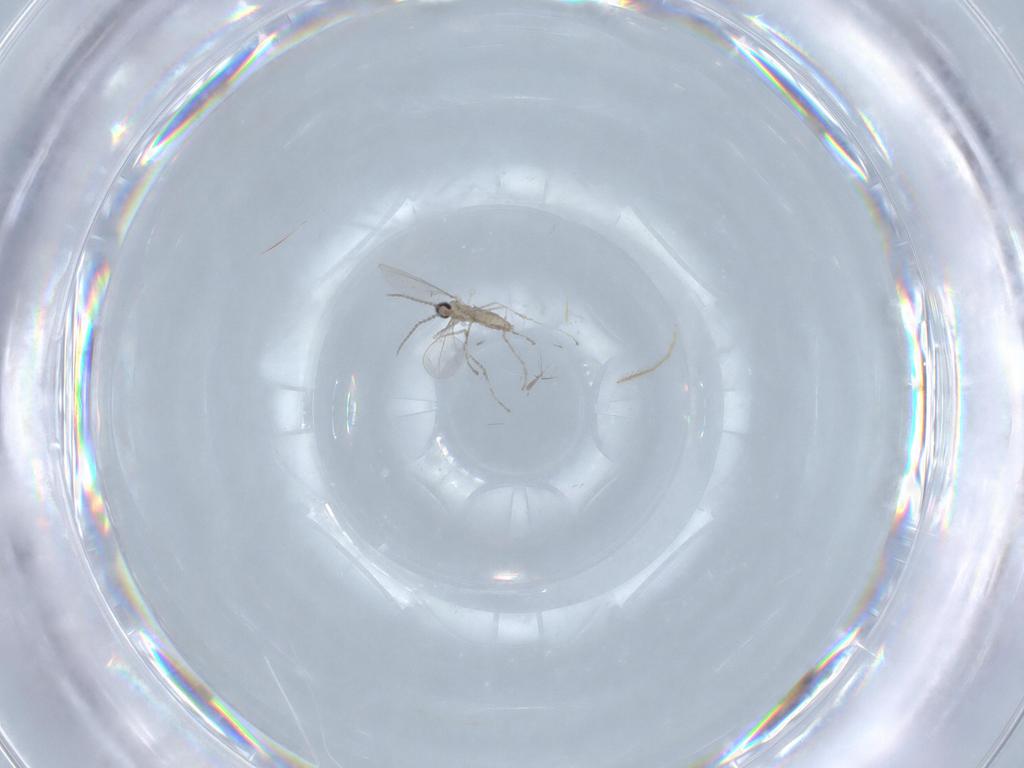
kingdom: Animalia
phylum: Arthropoda
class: Insecta
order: Diptera
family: Chironomidae
